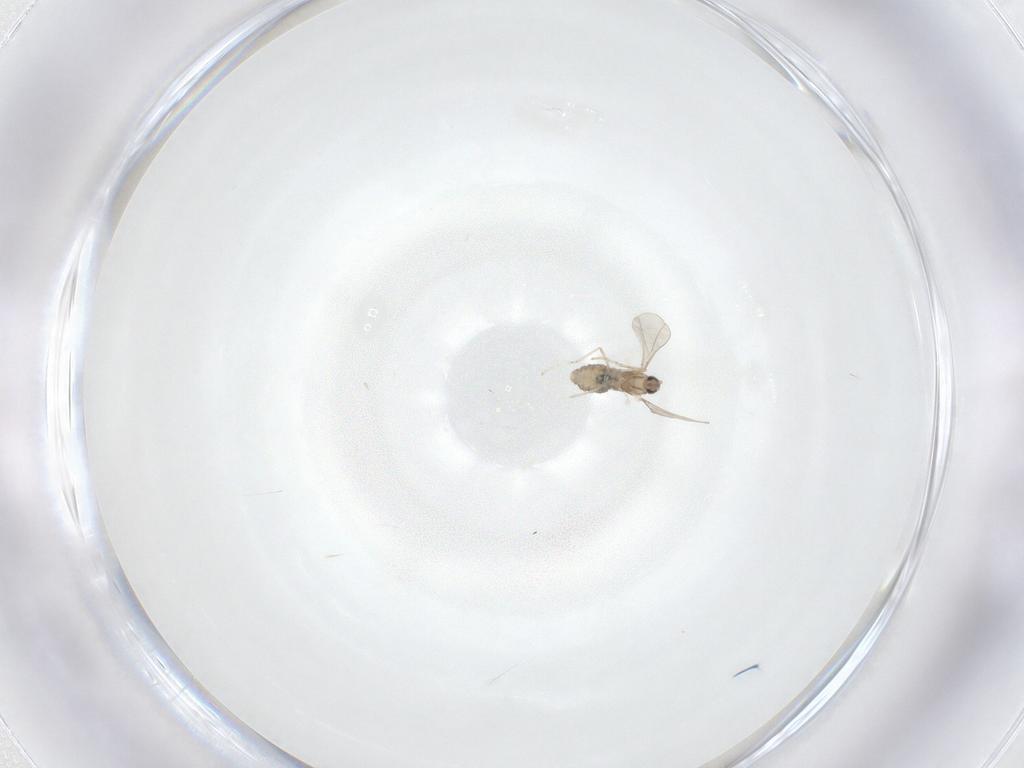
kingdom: Animalia
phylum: Arthropoda
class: Insecta
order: Diptera
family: Cecidomyiidae
